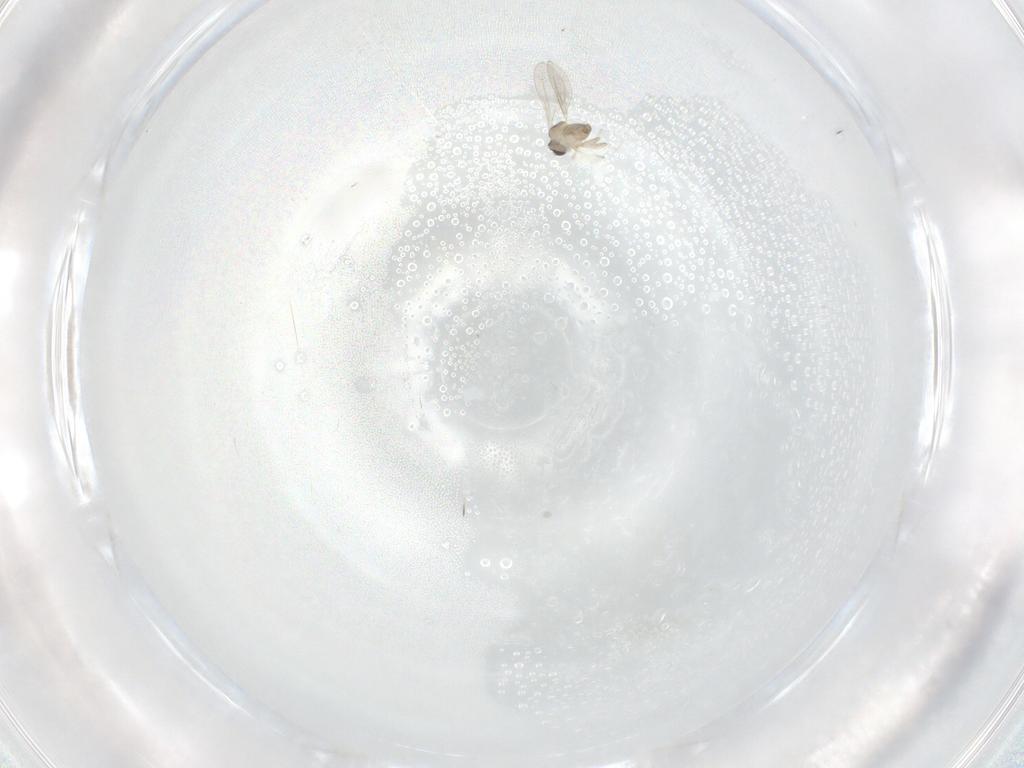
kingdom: Animalia
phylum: Arthropoda
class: Insecta
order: Diptera
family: Cecidomyiidae
